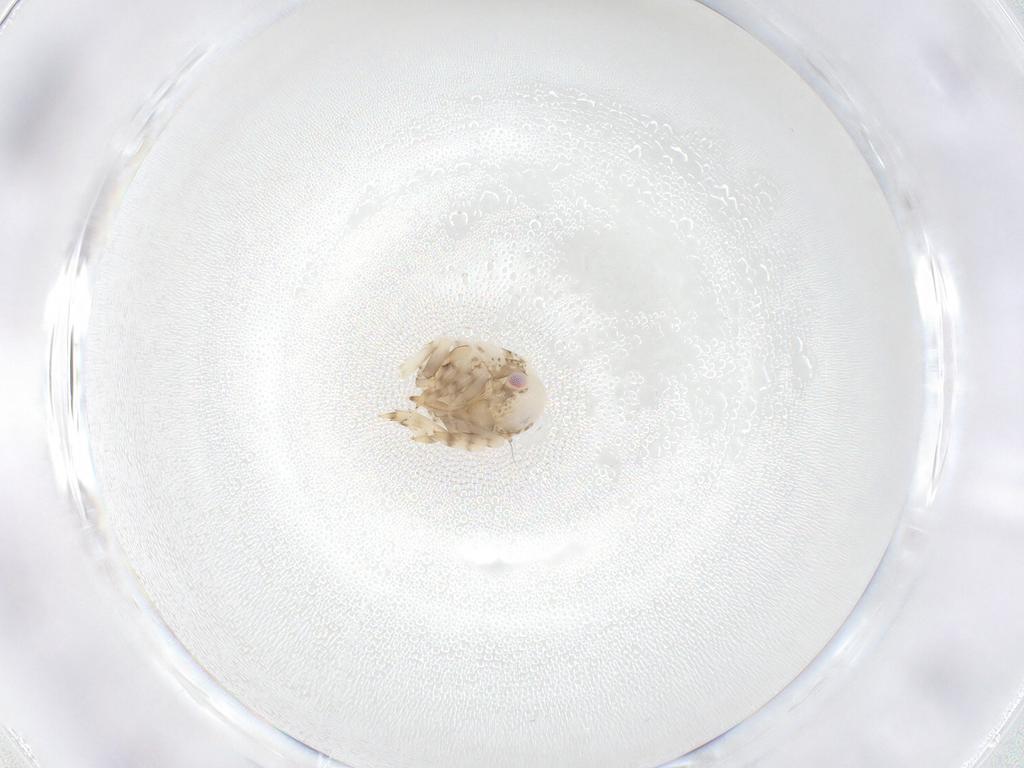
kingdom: Animalia
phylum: Arthropoda
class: Insecta
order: Hemiptera
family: Acanaloniidae
